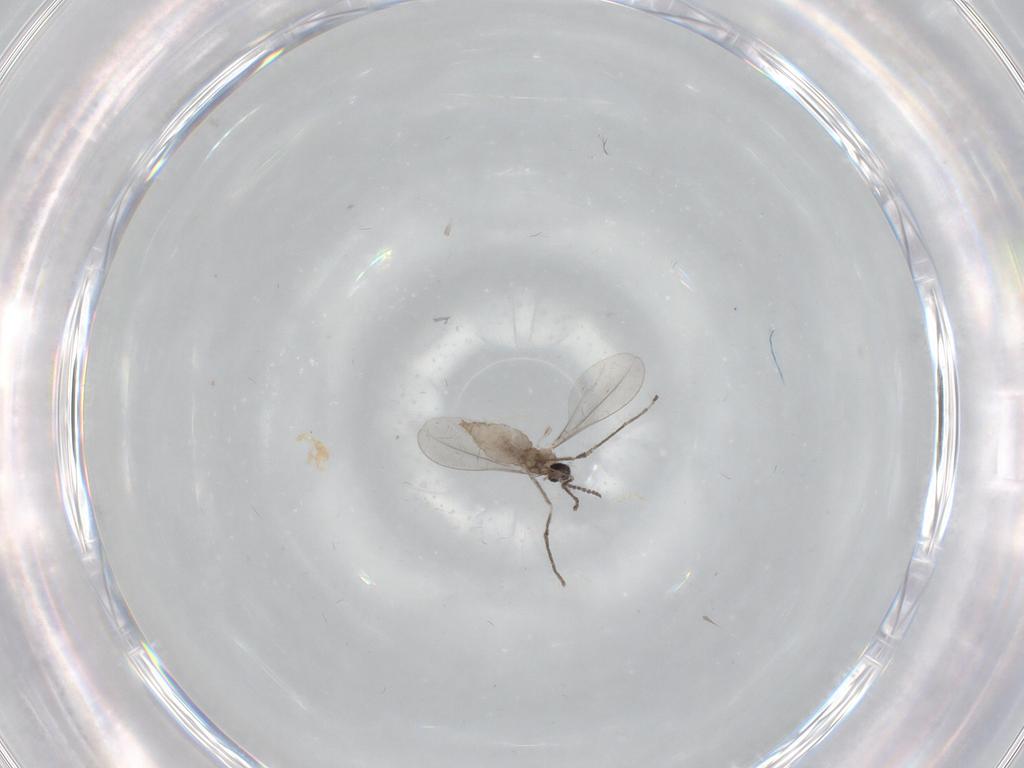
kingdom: Animalia
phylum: Arthropoda
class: Insecta
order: Diptera
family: Cecidomyiidae
